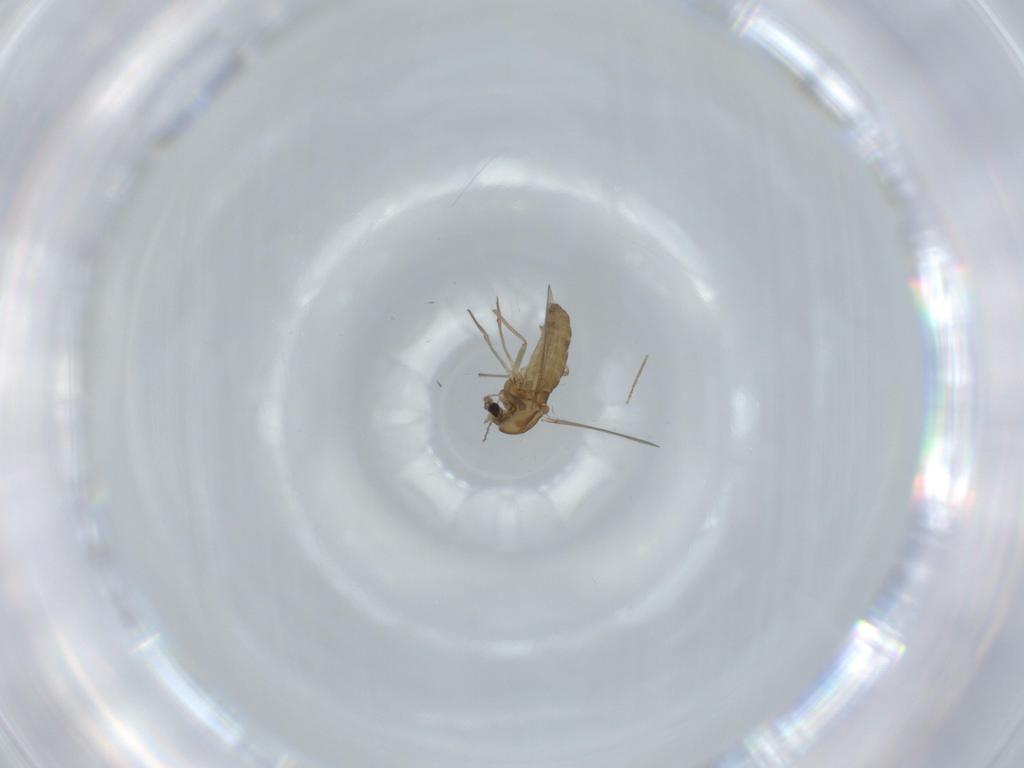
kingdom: Animalia
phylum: Arthropoda
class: Insecta
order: Diptera
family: Chironomidae
